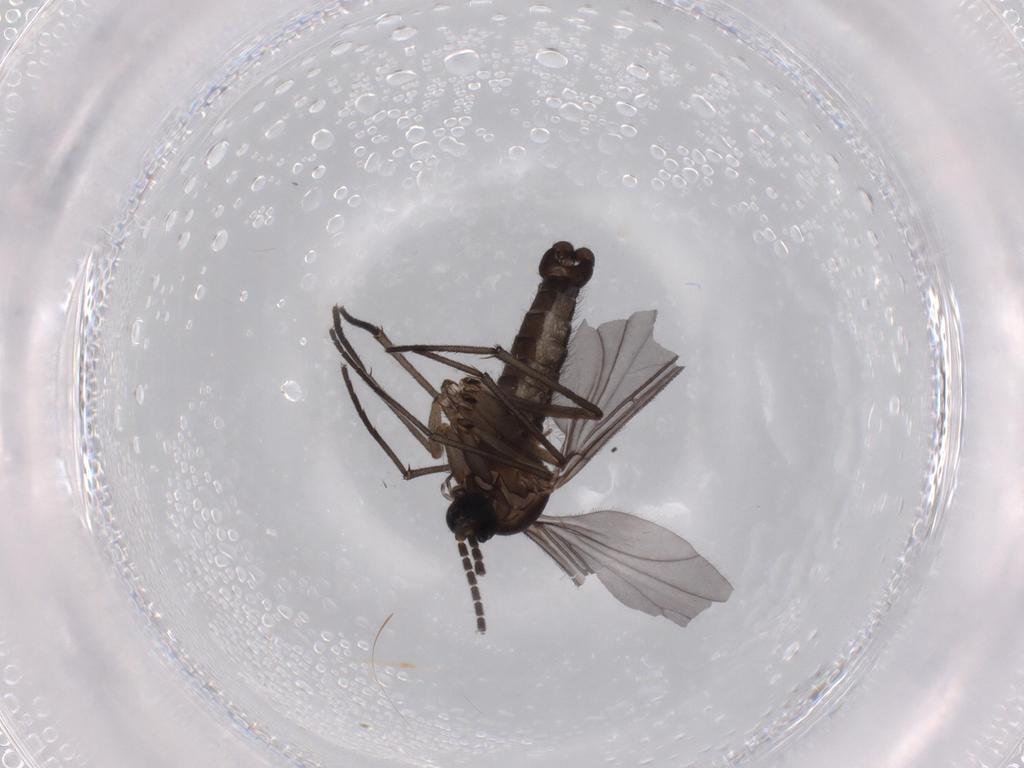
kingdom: Animalia
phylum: Arthropoda
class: Insecta
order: Diptera
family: Sciaridae
